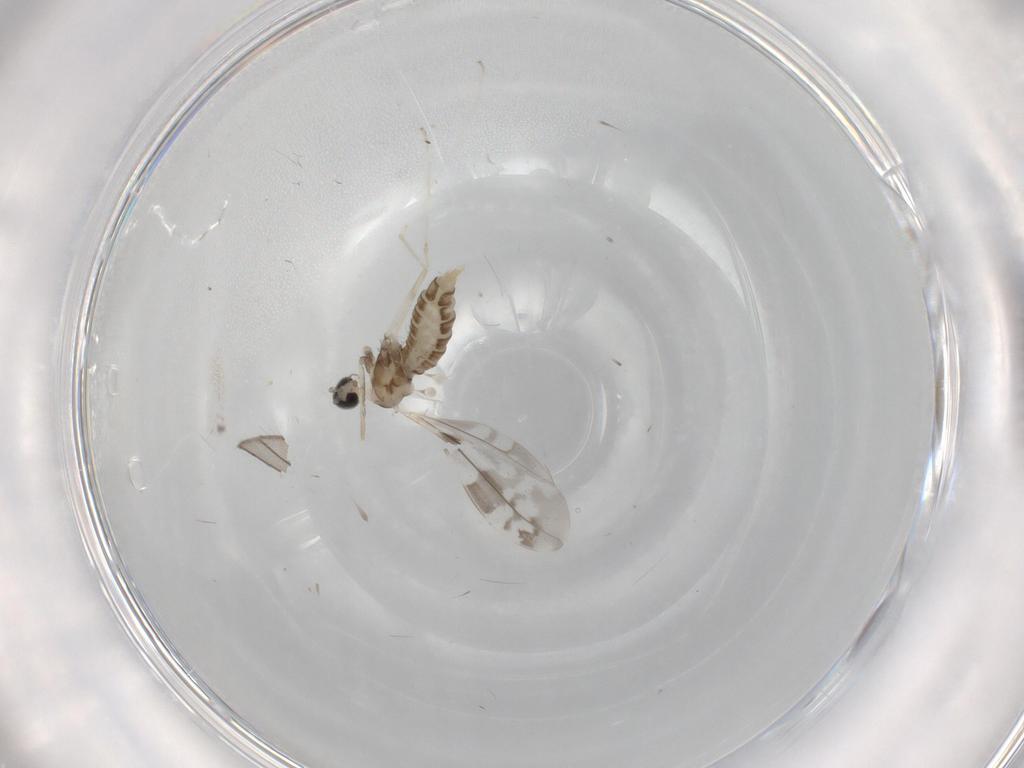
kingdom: Animalia
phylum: Arthropoda
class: Insecta
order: Diptera
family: Cecidomyiidae
